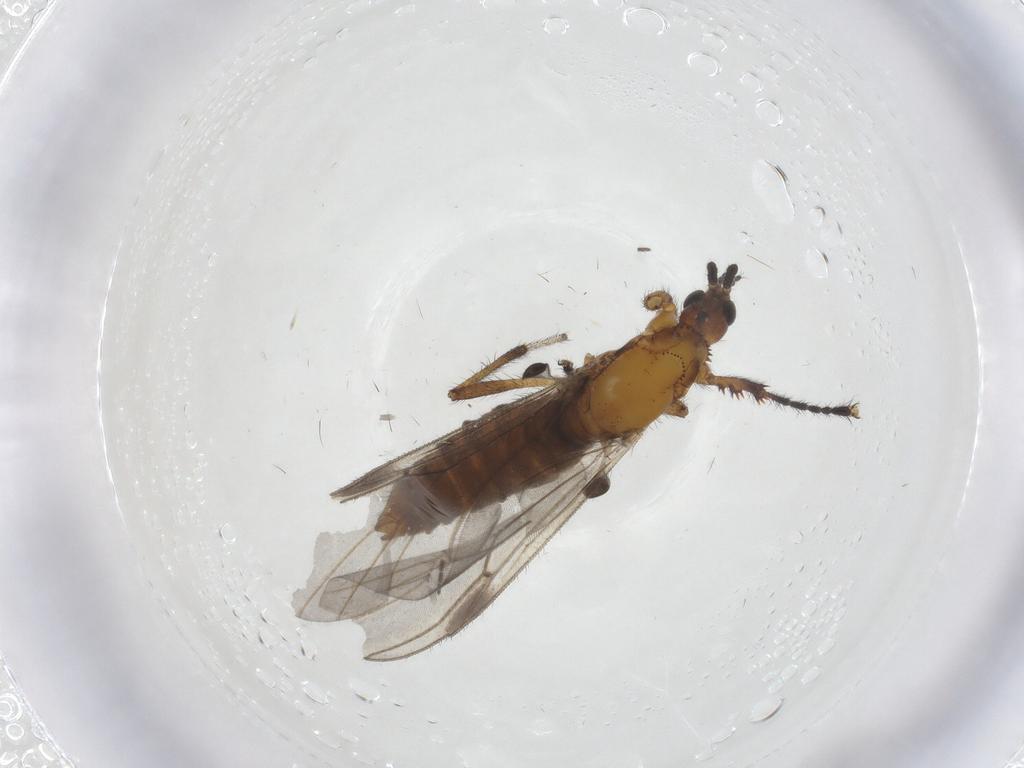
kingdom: Animalia
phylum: Arthropoda
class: Insecta
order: Diptera
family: Bibionidae
